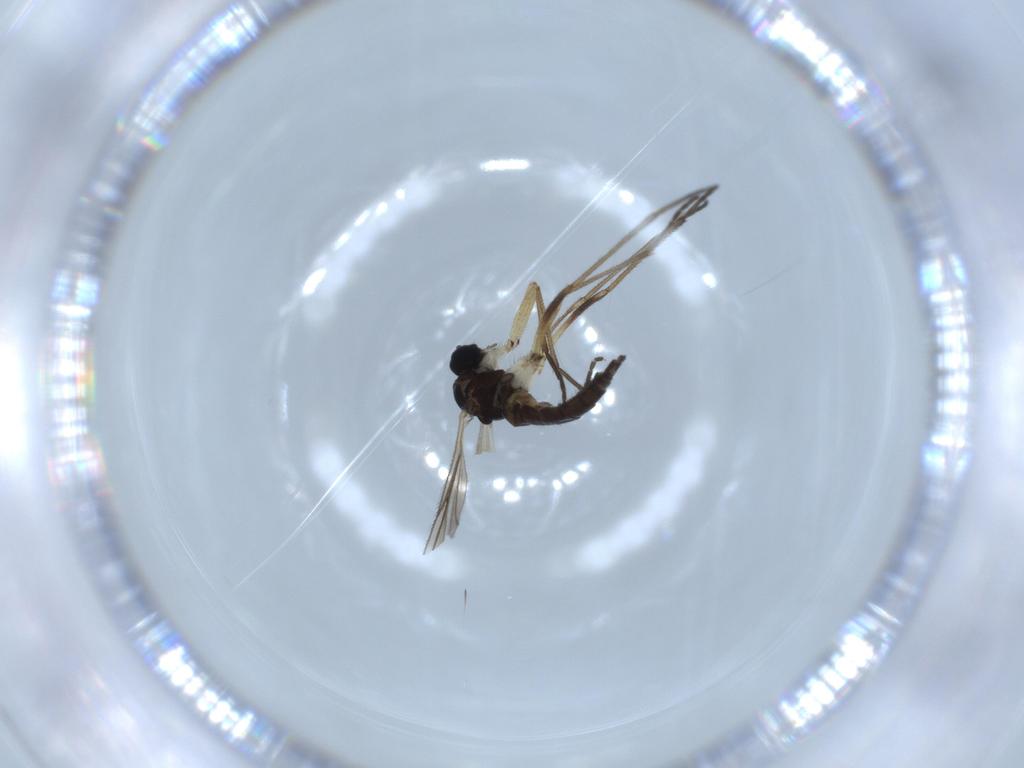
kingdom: Animalia
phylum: Arthropoda
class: Insecta
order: Diptera
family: Sciaridae
